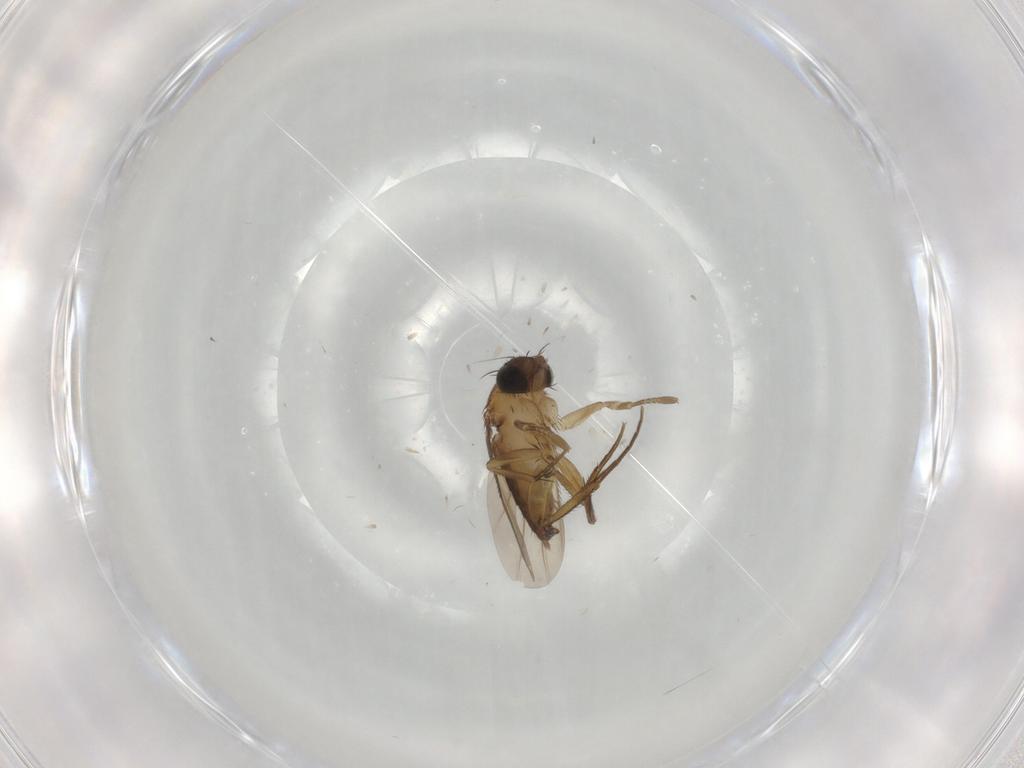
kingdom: Animalia
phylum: Arthropoda
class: Insecta
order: Diptera
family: Phoridae
